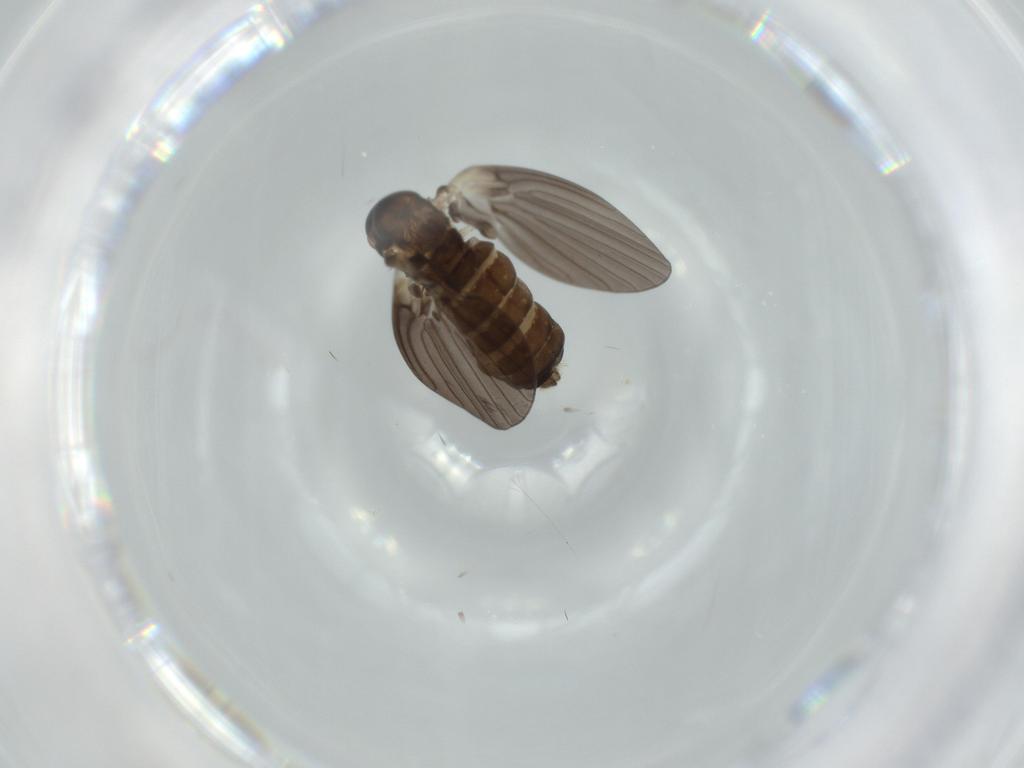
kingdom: Animalia
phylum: Arthropoda
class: Insecta
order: Diptera
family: Psychodidae
